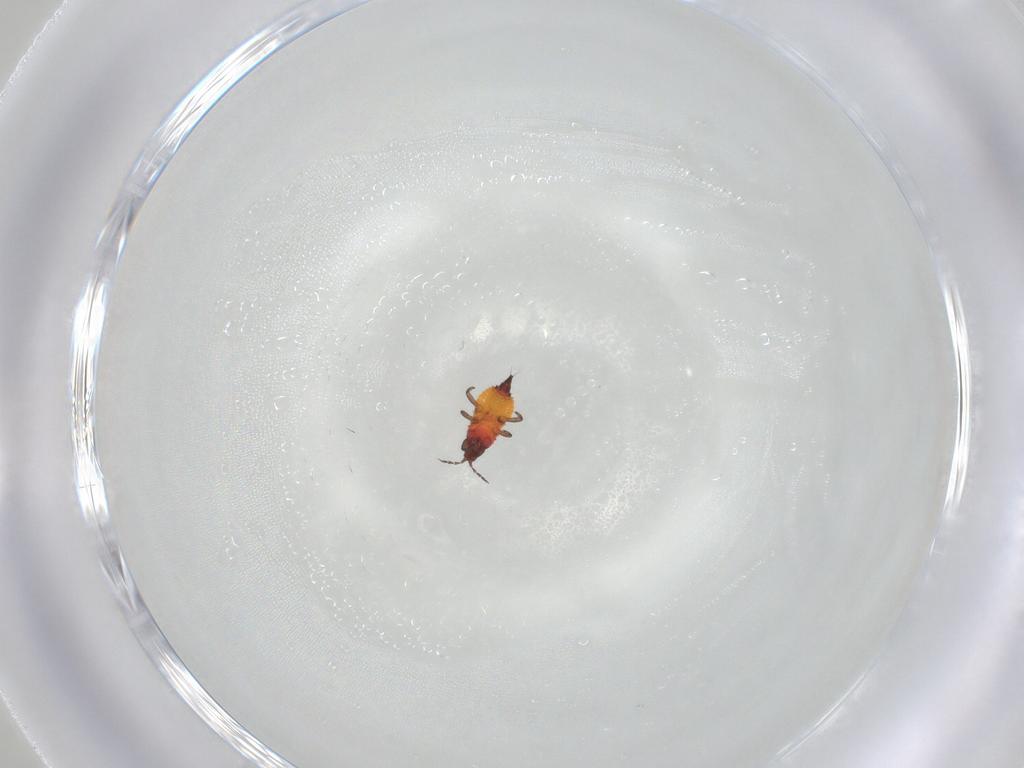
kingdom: Animalia
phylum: Arthropoda
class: Insecta
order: Thysanoptera
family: Phlaeothripidae
